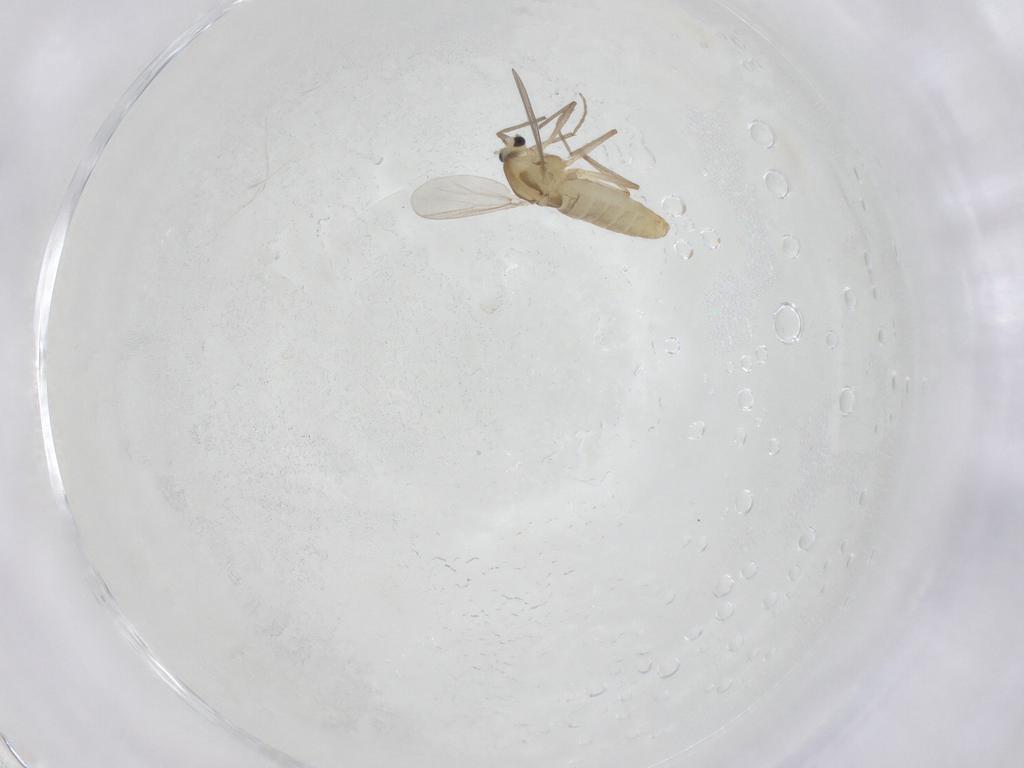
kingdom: Animalia
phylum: Arthropoda
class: Insecta
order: Diptera
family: Chironomidae
